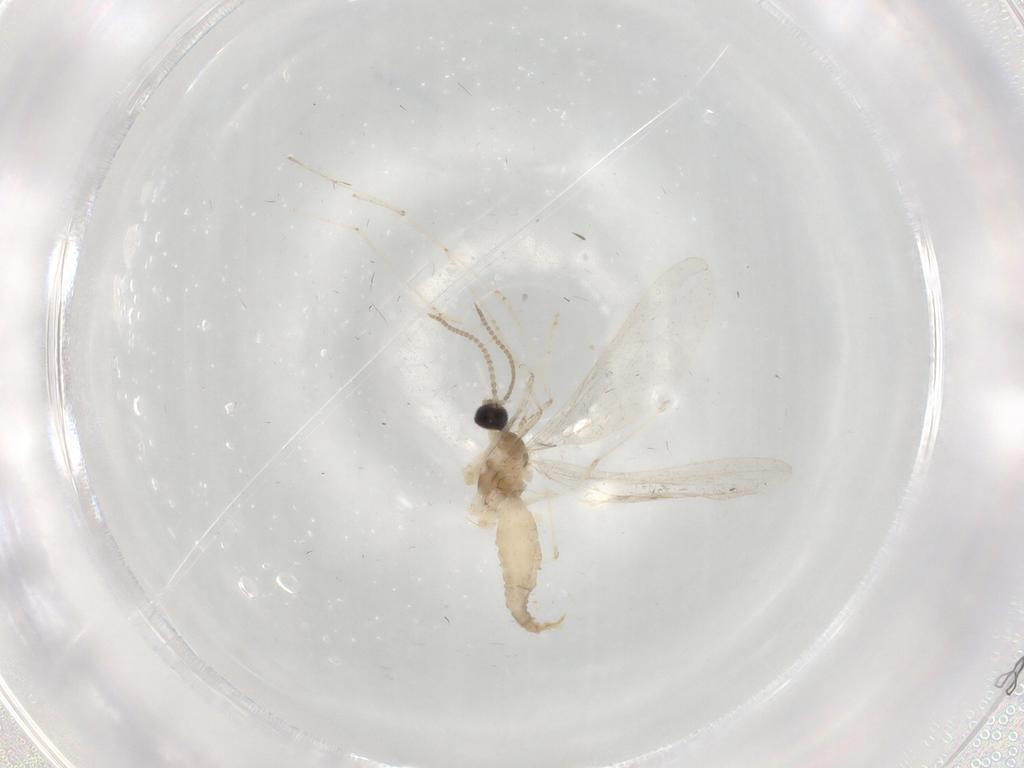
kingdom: Animalia
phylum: Arthropoda
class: Insecta
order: Diptera
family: Cecidomyiidae
